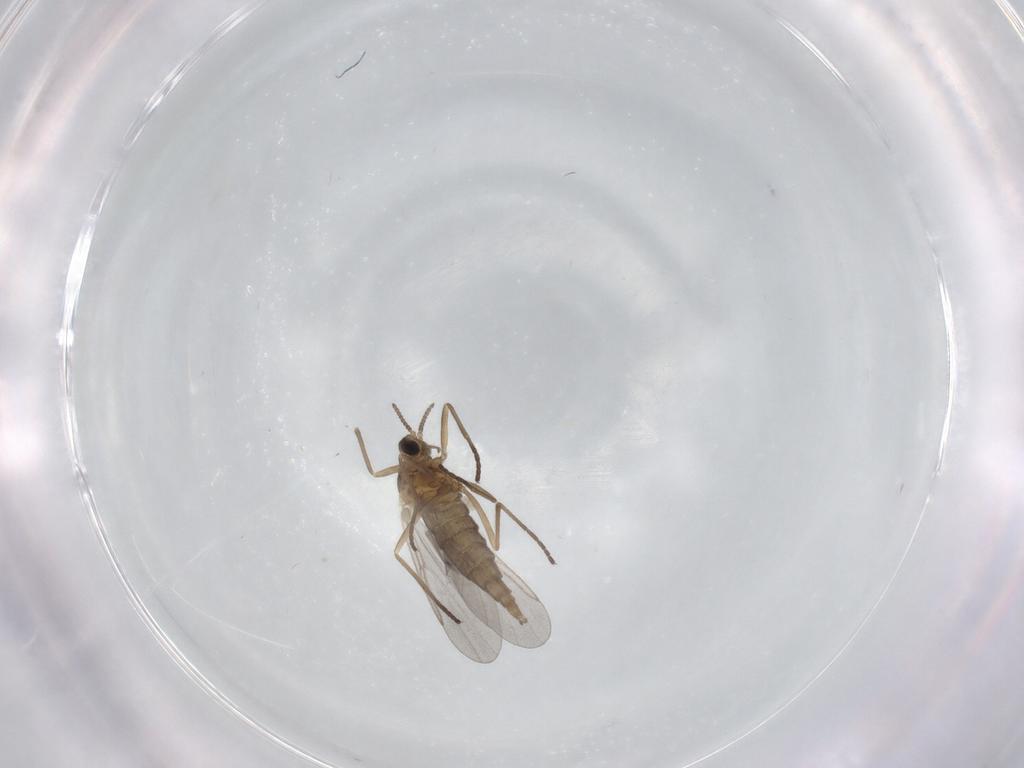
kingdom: Animalia
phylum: Arthropoda
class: Insecta
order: Diptera
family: Cecidomyiidae
